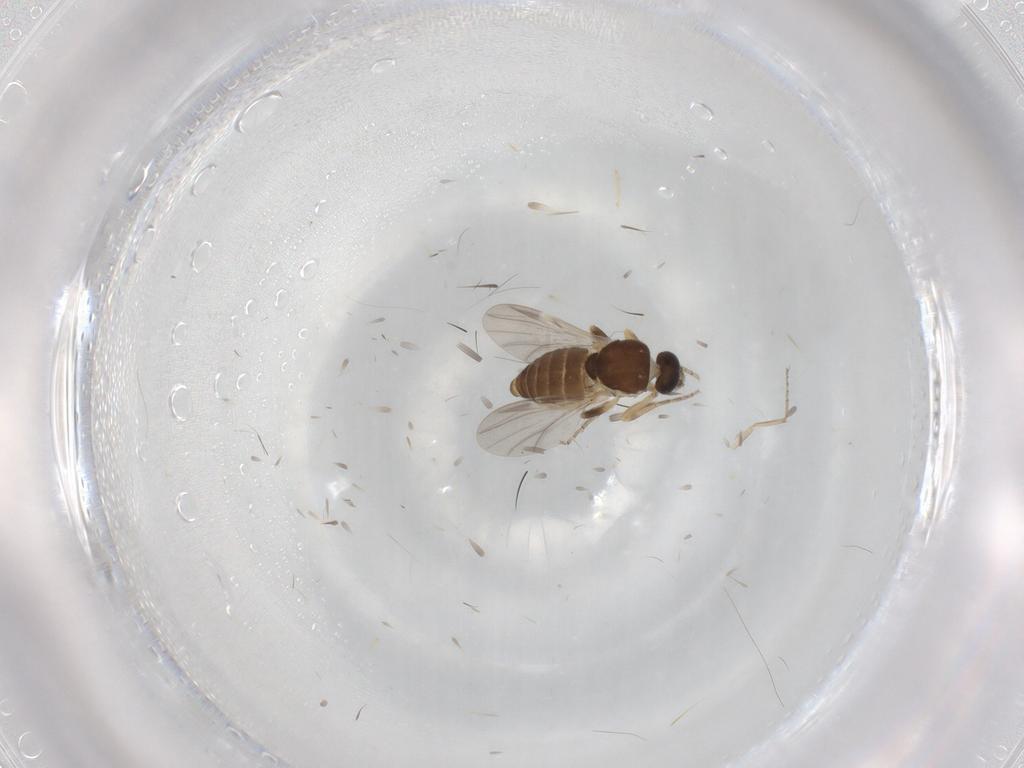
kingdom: Animalia
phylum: Arthropoda
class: Insecta
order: Diptera
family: Ceratopogonidae
